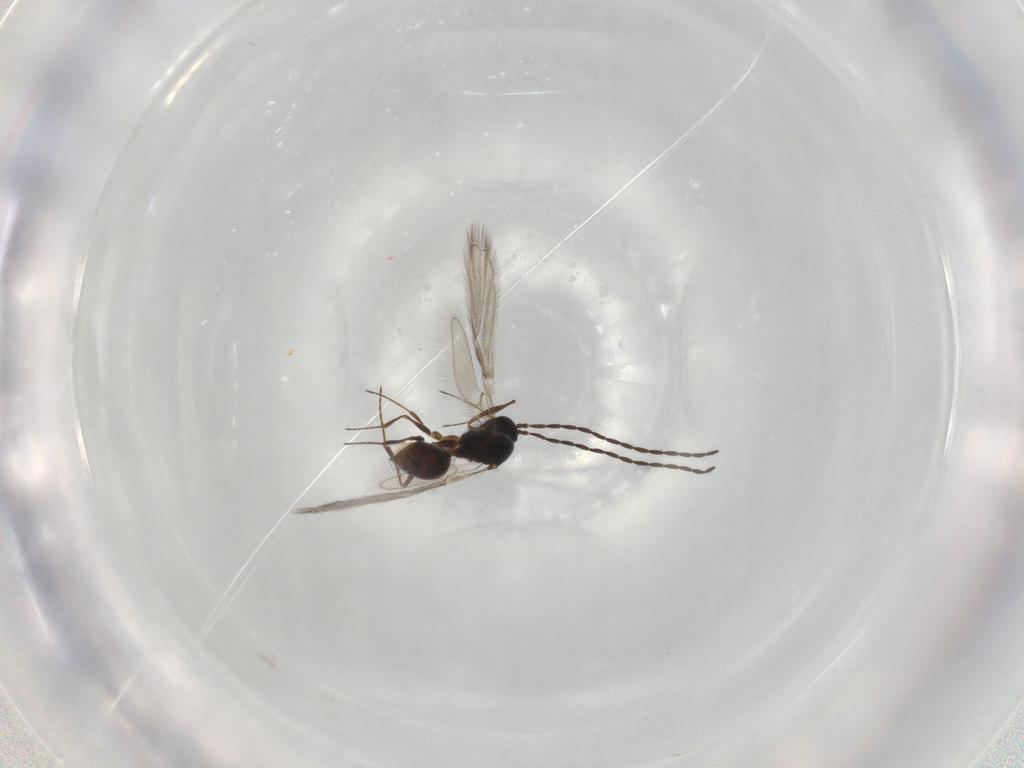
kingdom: Animalia
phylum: Arthropoda
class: Insecta
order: Hymenoptera
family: Figitidae
